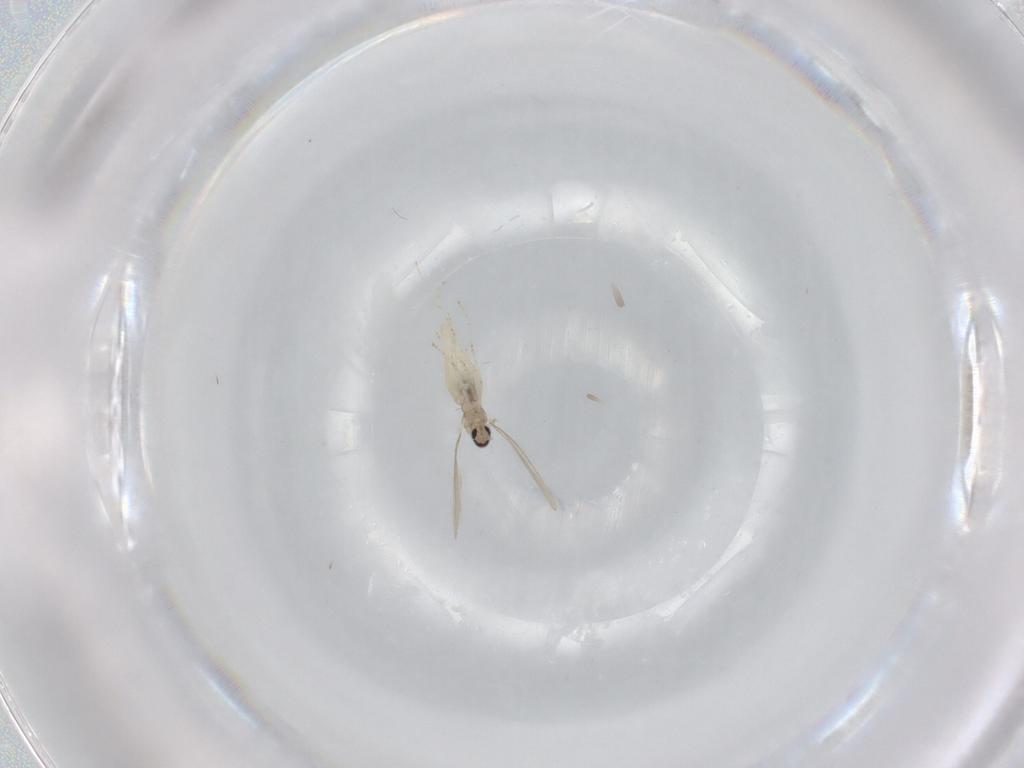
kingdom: Animalia
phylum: Arthropoda
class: Insecta
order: Diptera
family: Cecidomyiidae
